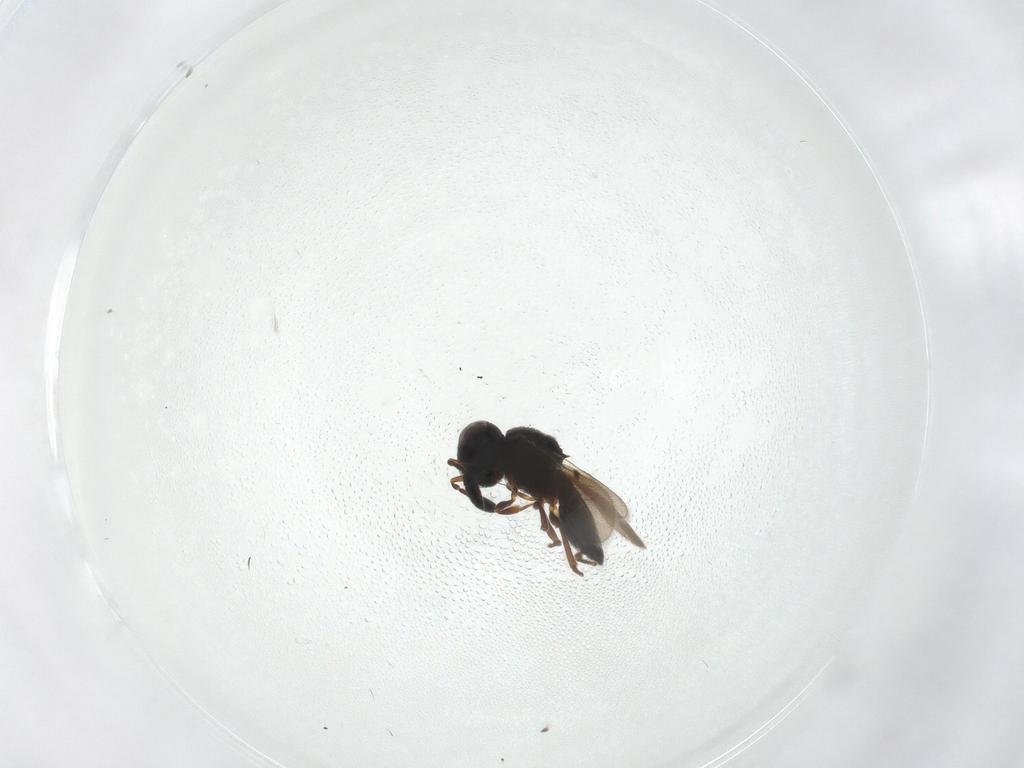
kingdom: Animalia
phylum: Arthropoda
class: Insecta
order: Hymenoptera
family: Scelionidae
